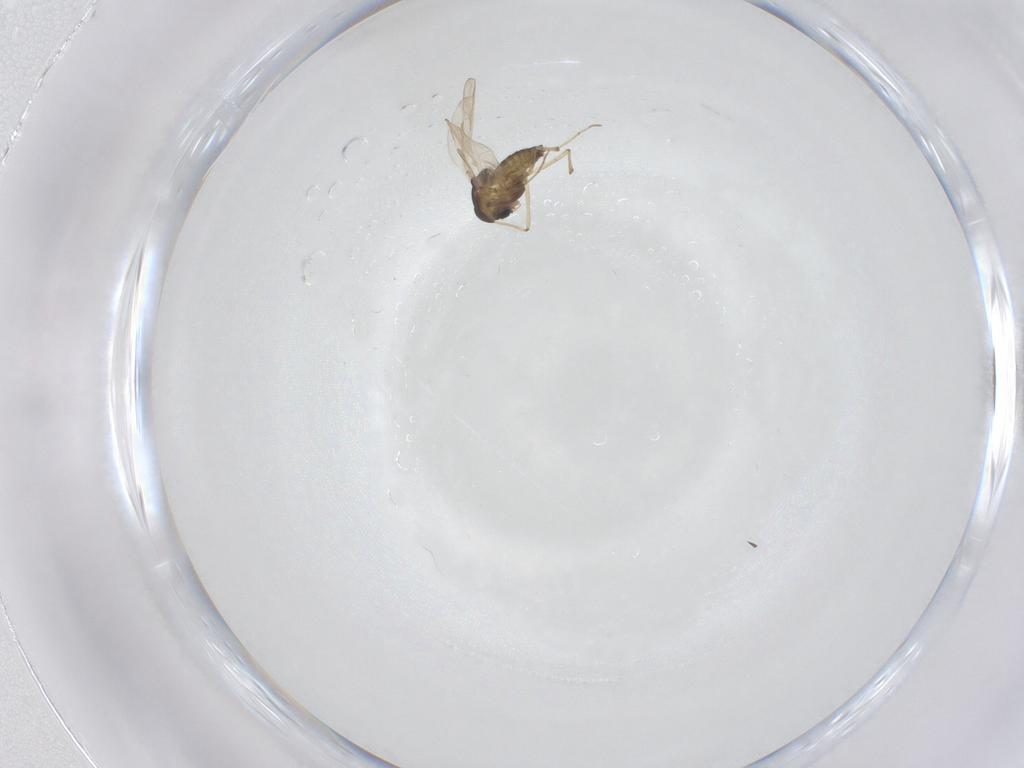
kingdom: Animalia
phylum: Arthropoda
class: Insecta
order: Diptera
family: Chironomidae
